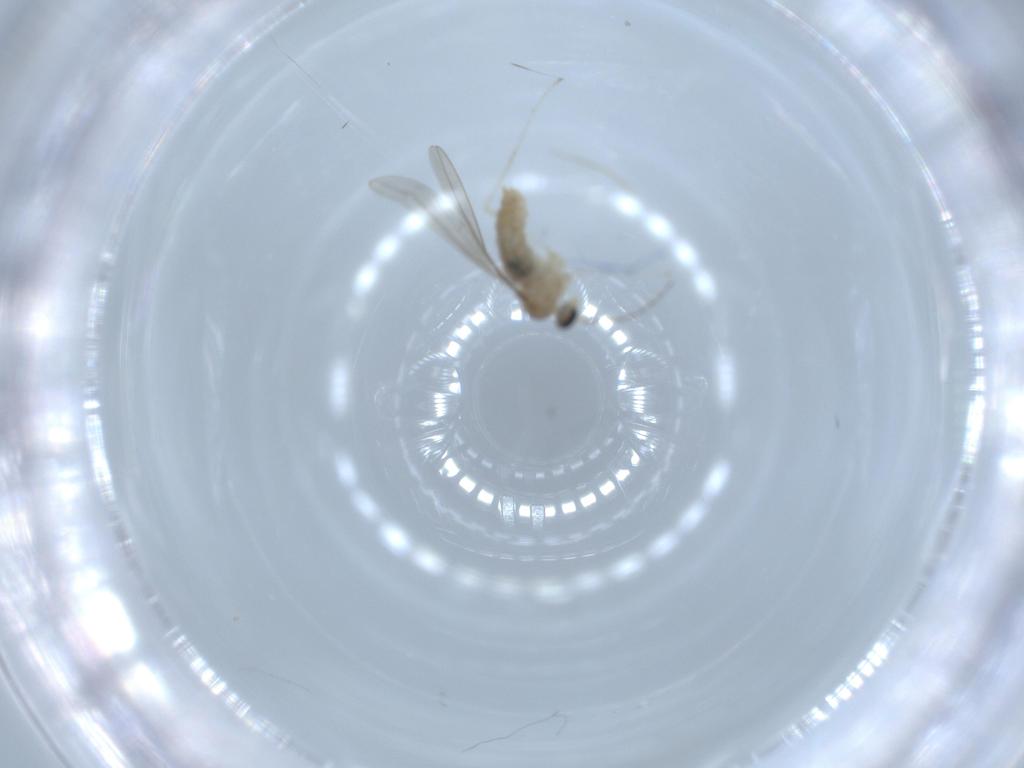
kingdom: Animalia
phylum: Arthropoda
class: Insecta
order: Diptera
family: Cecidomyiidae
